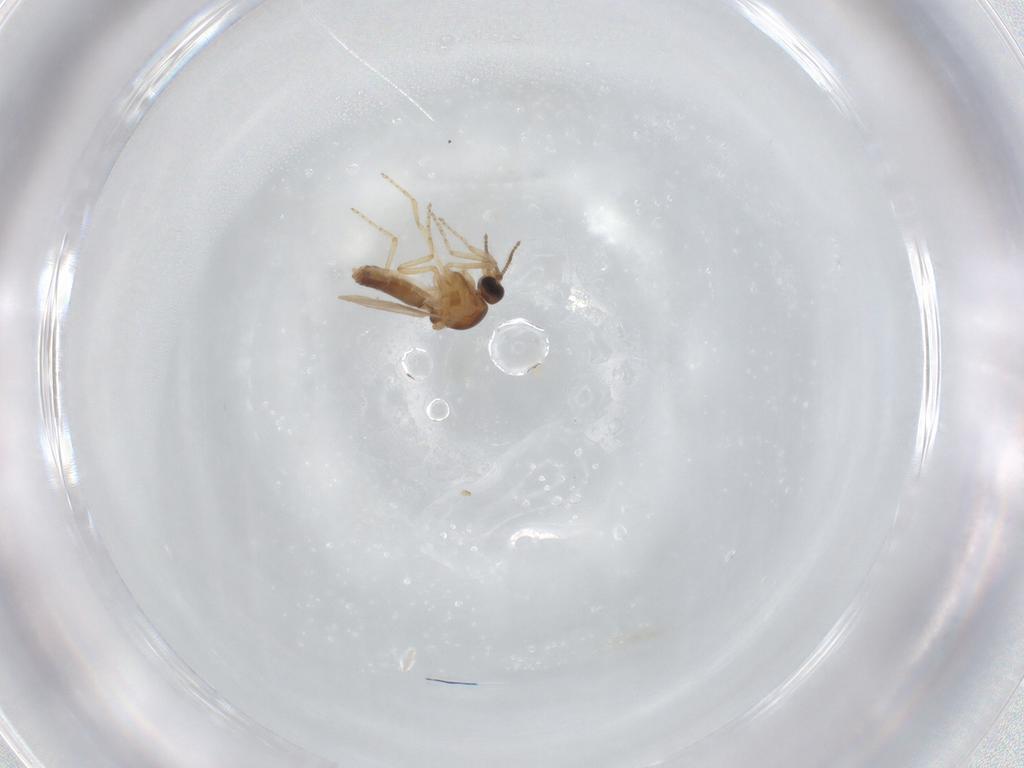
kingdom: Animalia
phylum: Arthropoda
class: Insecta
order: Diptera
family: Ceratopogonidae
